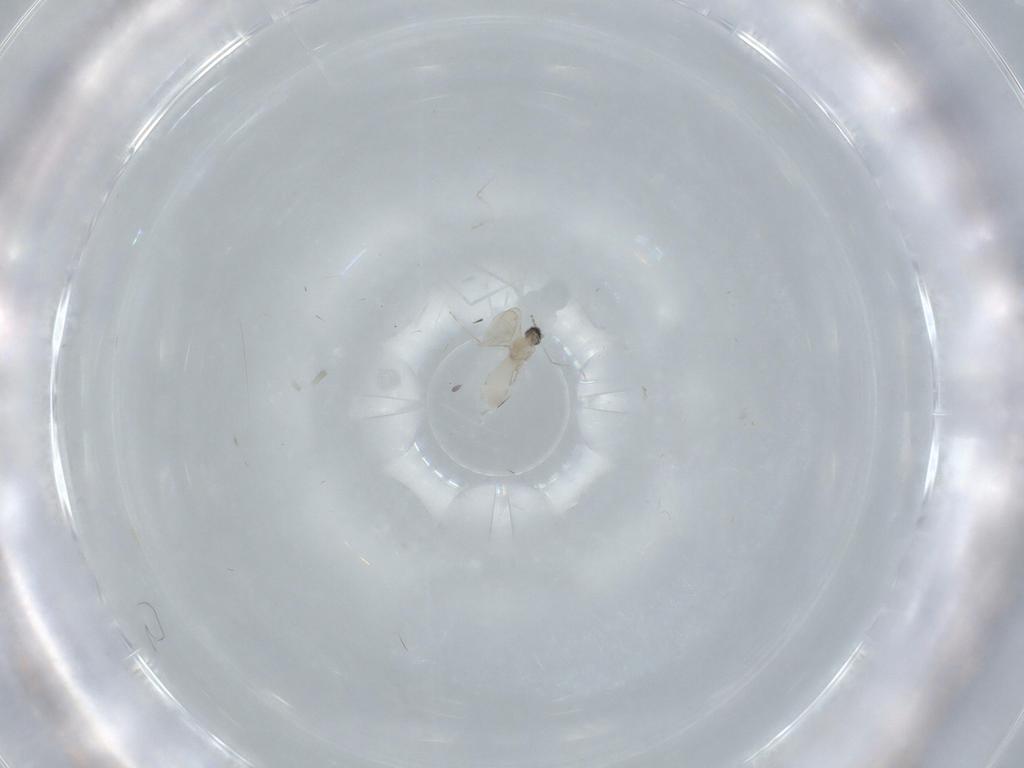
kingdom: Animalia
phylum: Arthropoda
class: Insecta
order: Diptera
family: Cecidomyiidae
